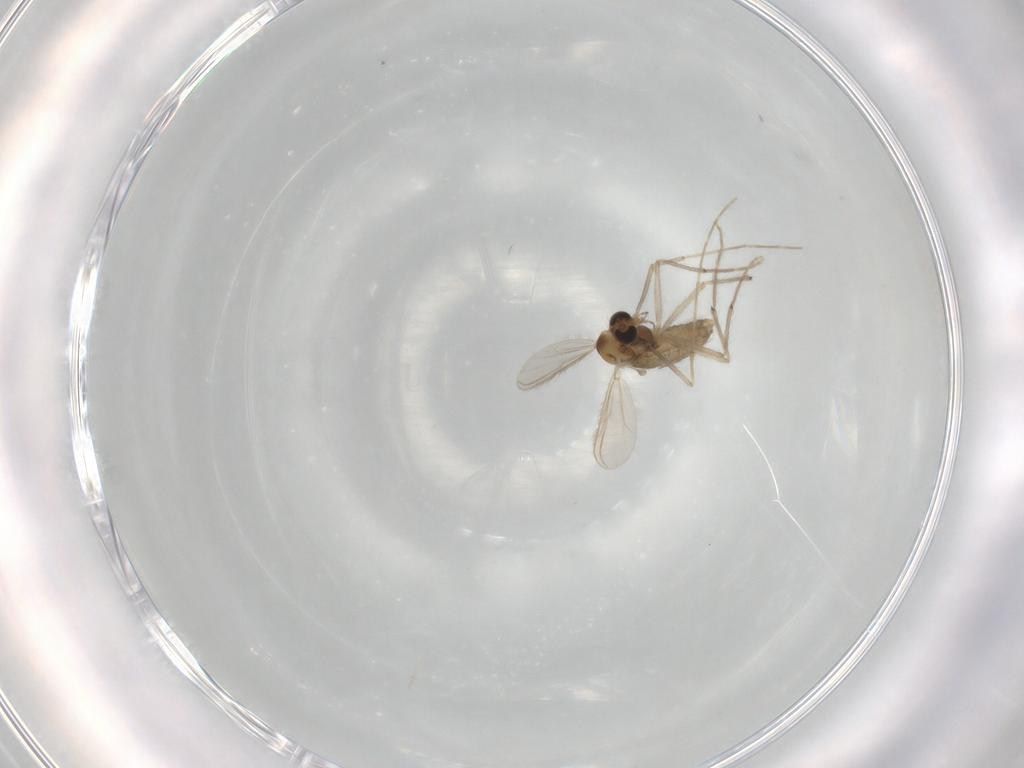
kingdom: Animalia
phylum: Arthropoda
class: Insecta
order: Diptera
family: Chironomidae
